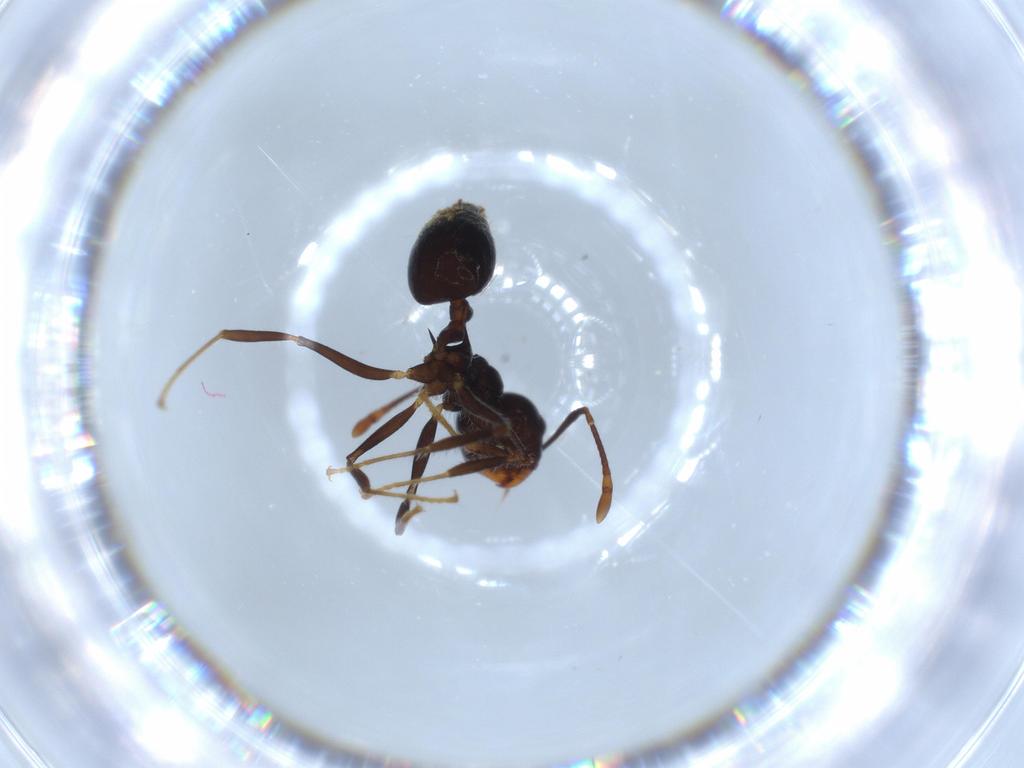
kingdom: Animalia
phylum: Arthropoda
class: Insecta
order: Hymenoptera
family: Formicidae
